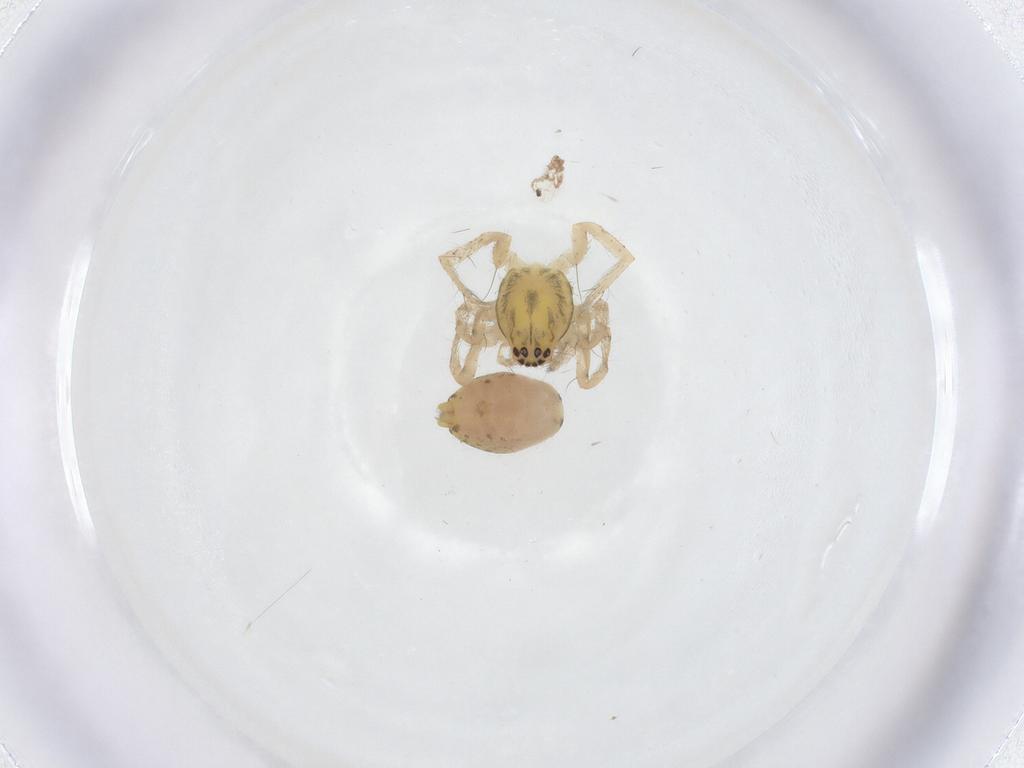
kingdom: Animalia
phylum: Arthropoda
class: Arachnida
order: Araneae
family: Anyphaenidae
